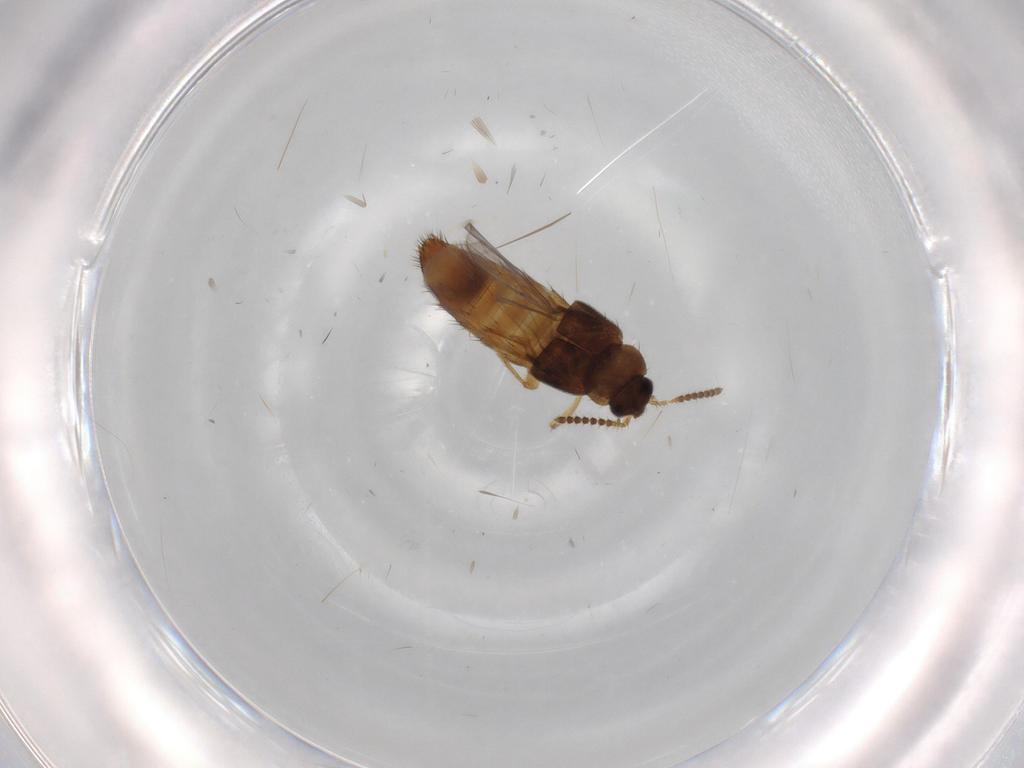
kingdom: Animalia
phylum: Arthropoda
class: Insecta
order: Coleoptera
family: Staphylinidae
